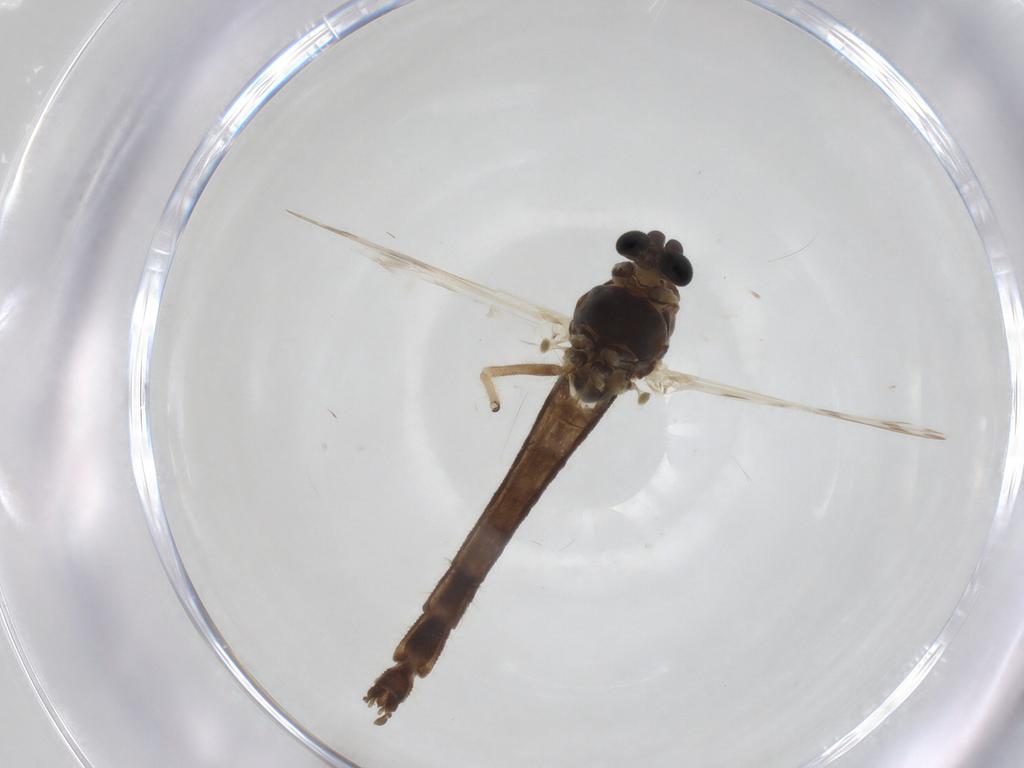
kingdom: Animalia
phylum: Arthropoda
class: Insecta
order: Diptera
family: Chironomidae
